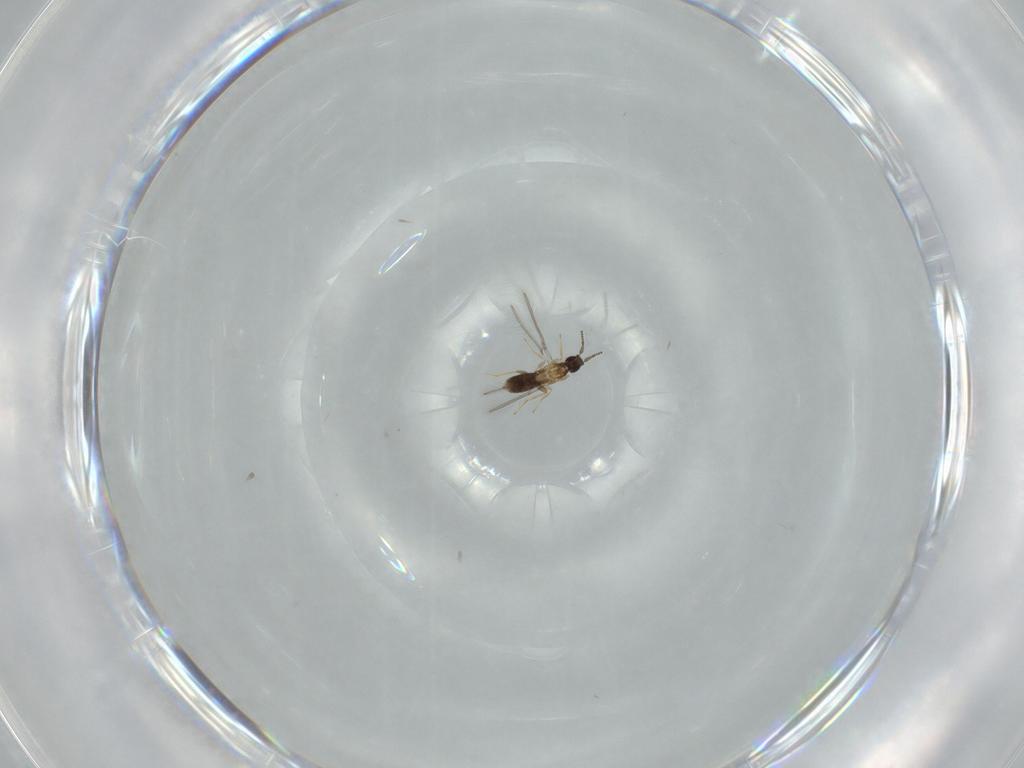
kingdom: Animalia
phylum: Arthropoda
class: Insecta
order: Hymenoptera
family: Mymaridae
